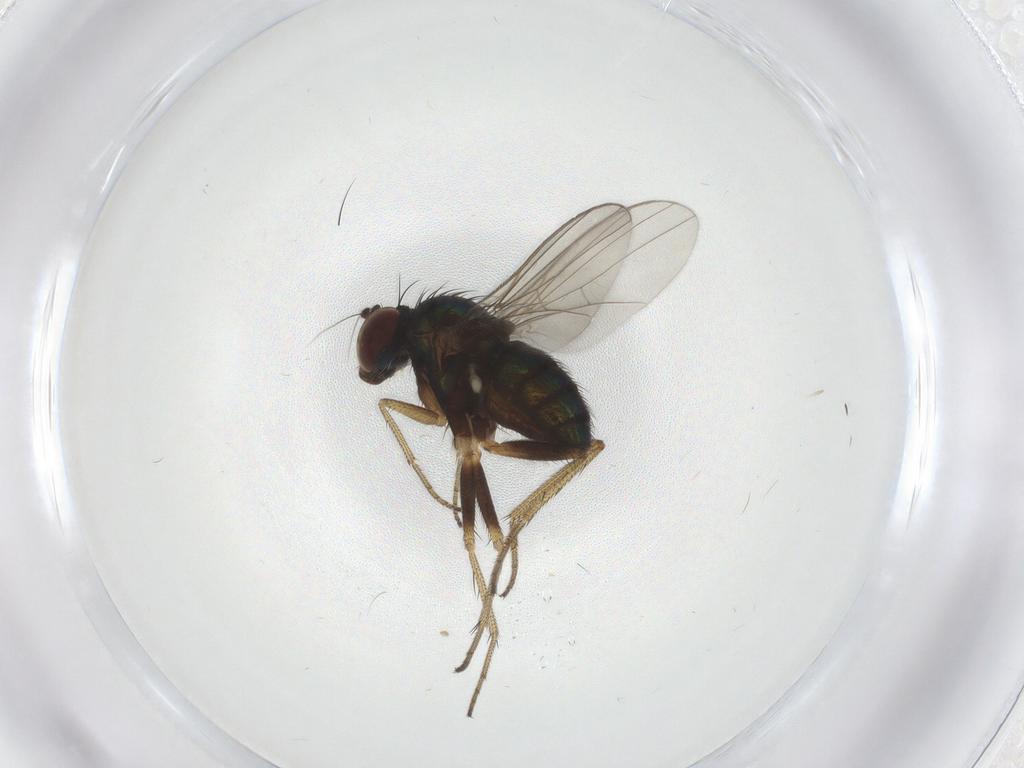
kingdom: Animalia
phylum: Arthropoda
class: Insecta
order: Diptera
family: Dolichopodidae
